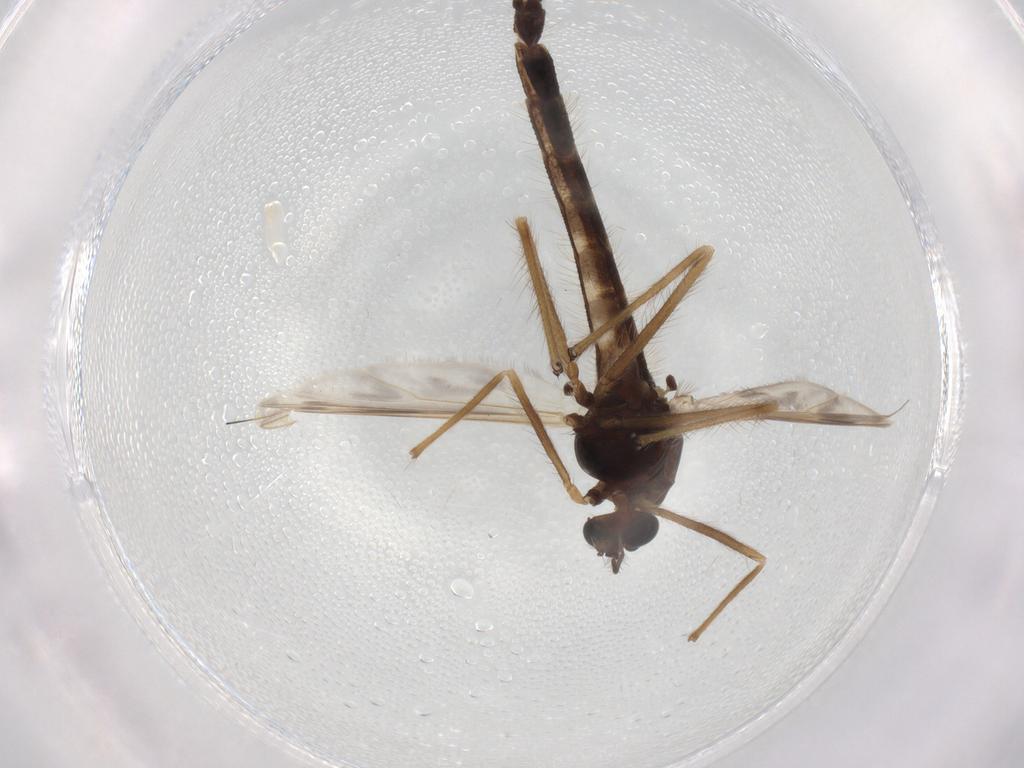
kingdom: Animalia
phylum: Arthropoda
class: Insecta
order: Diptera
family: Chironomidae
